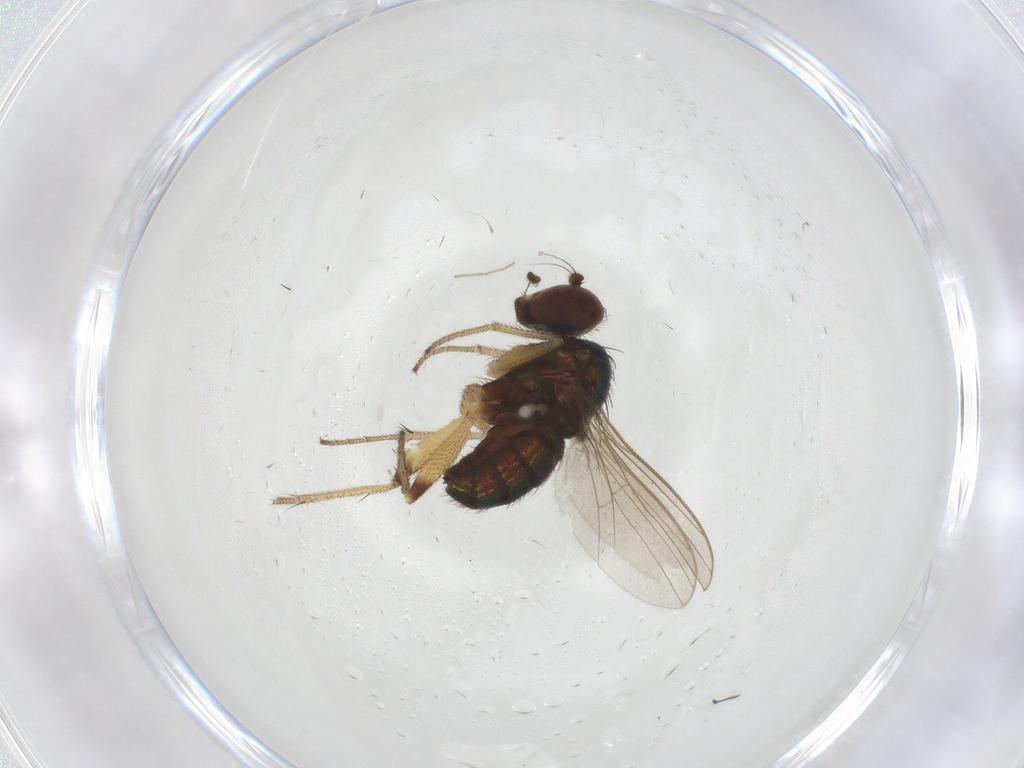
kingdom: Animalia
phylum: Arthropoda
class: Insecta
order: Diptera
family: Dolichopodidae
